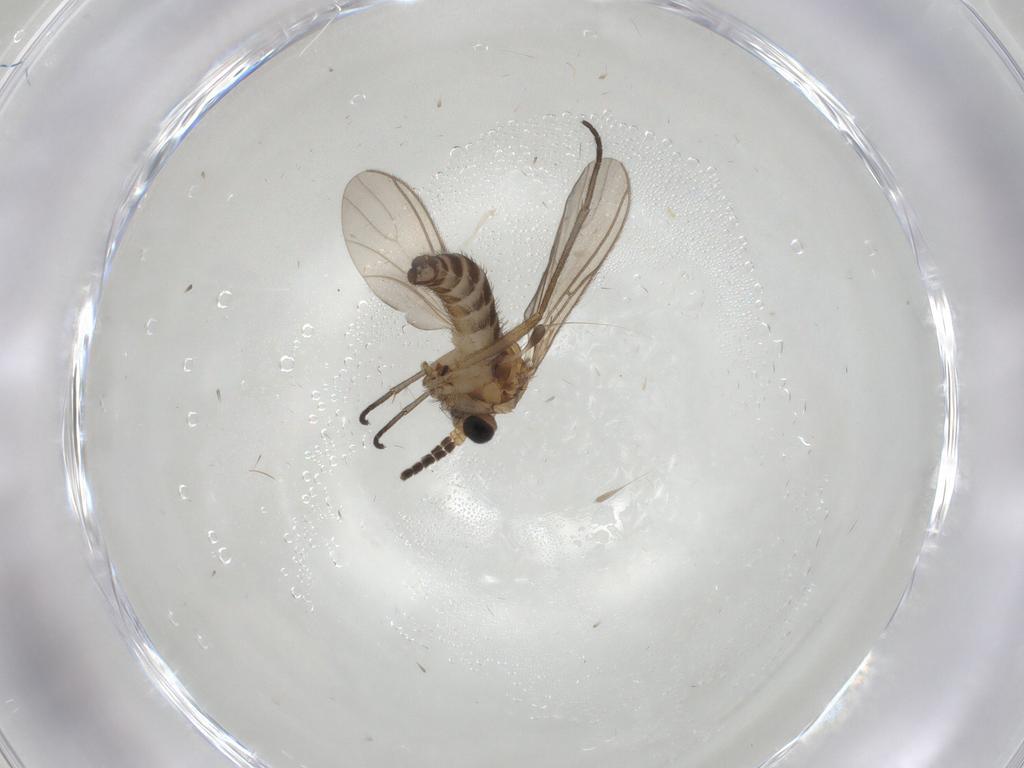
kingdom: Animalia
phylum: Arthropoda
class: Insecta
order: Diptera
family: Sciaridae
